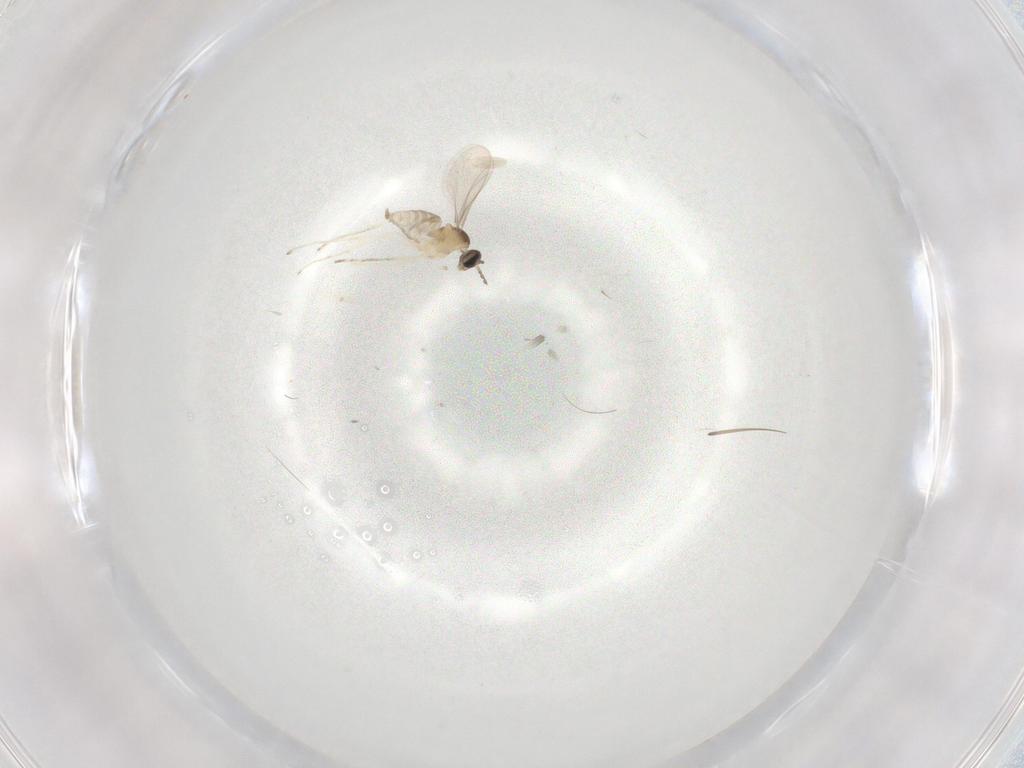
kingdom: Animalia
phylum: Arthropoda
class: Insecta
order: Diptera
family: Cecidomyiidae
